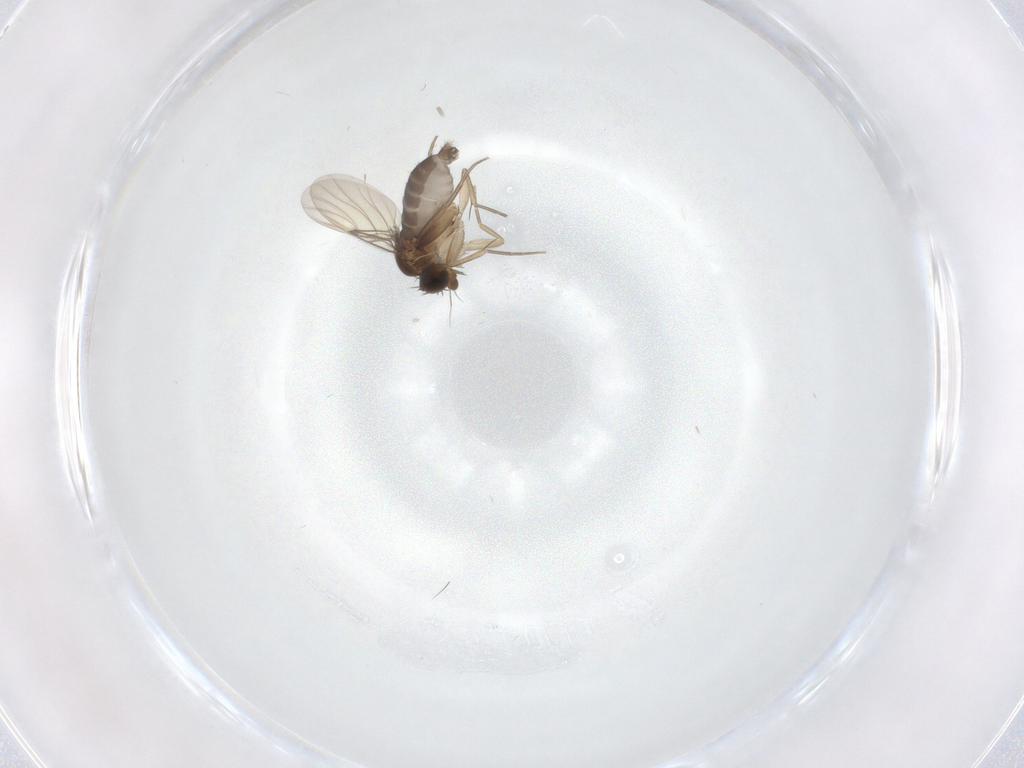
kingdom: Animalia
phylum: Arthropoda
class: Insecta
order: Diptera
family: Phoridae
